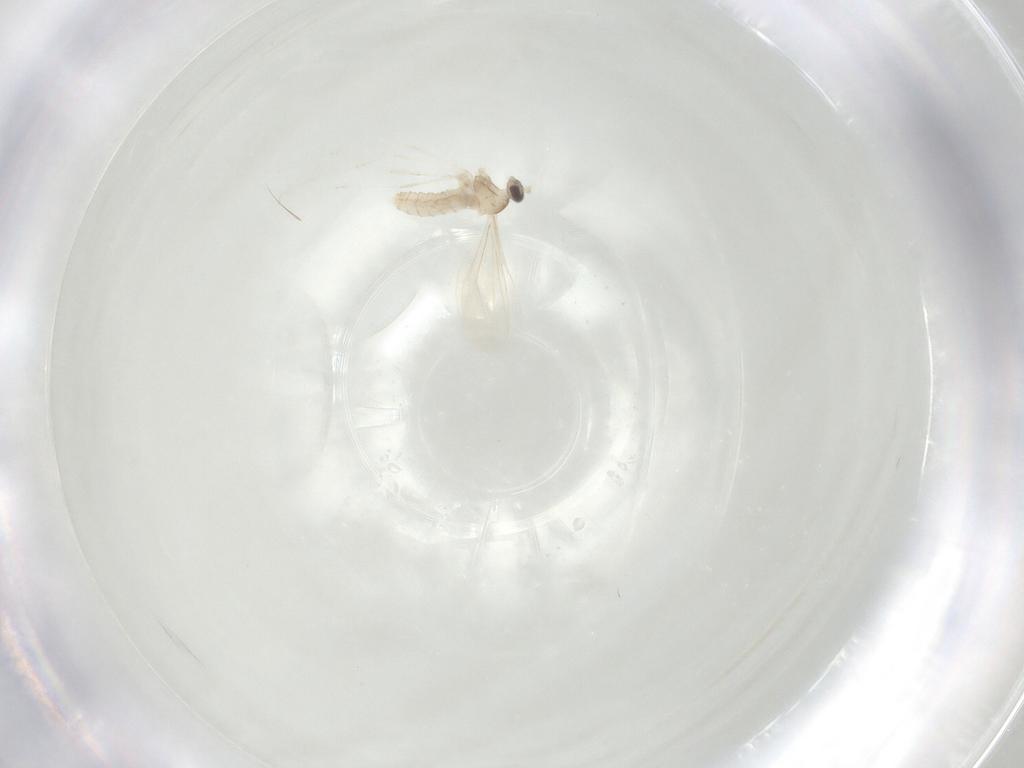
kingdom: Animalia
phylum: Arthropoda
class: Insecta
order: Diptera
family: Cecidomyiidae
